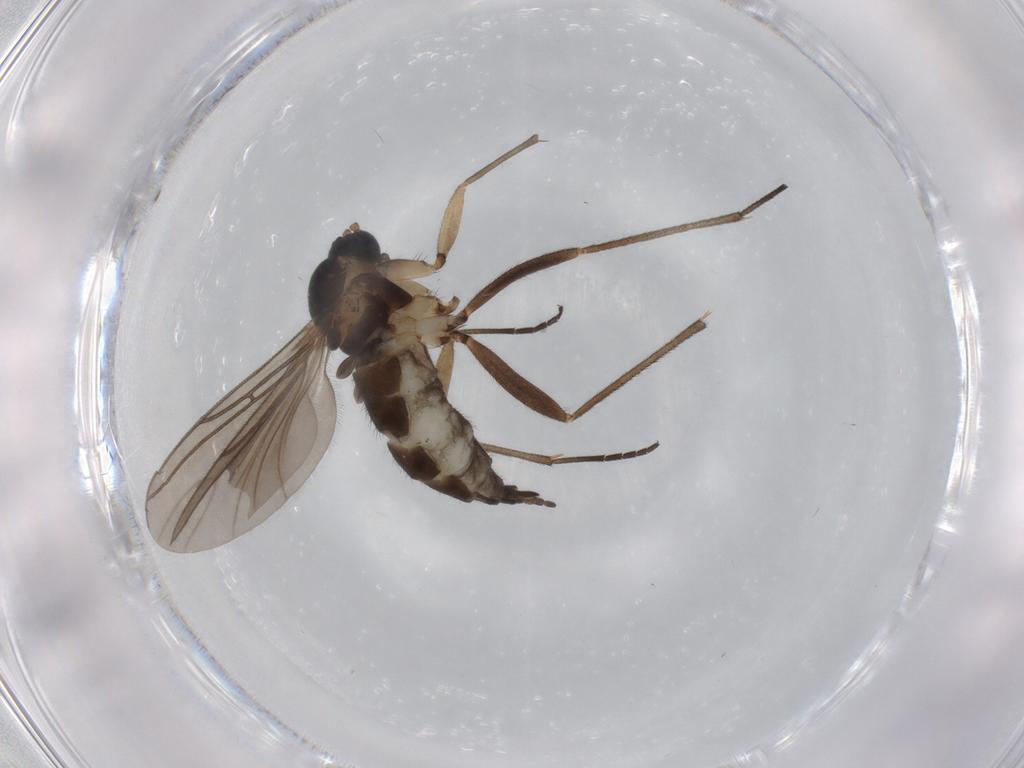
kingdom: Animalia
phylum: Arthropoda
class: Insecta
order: Diptera
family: Sciaridae
